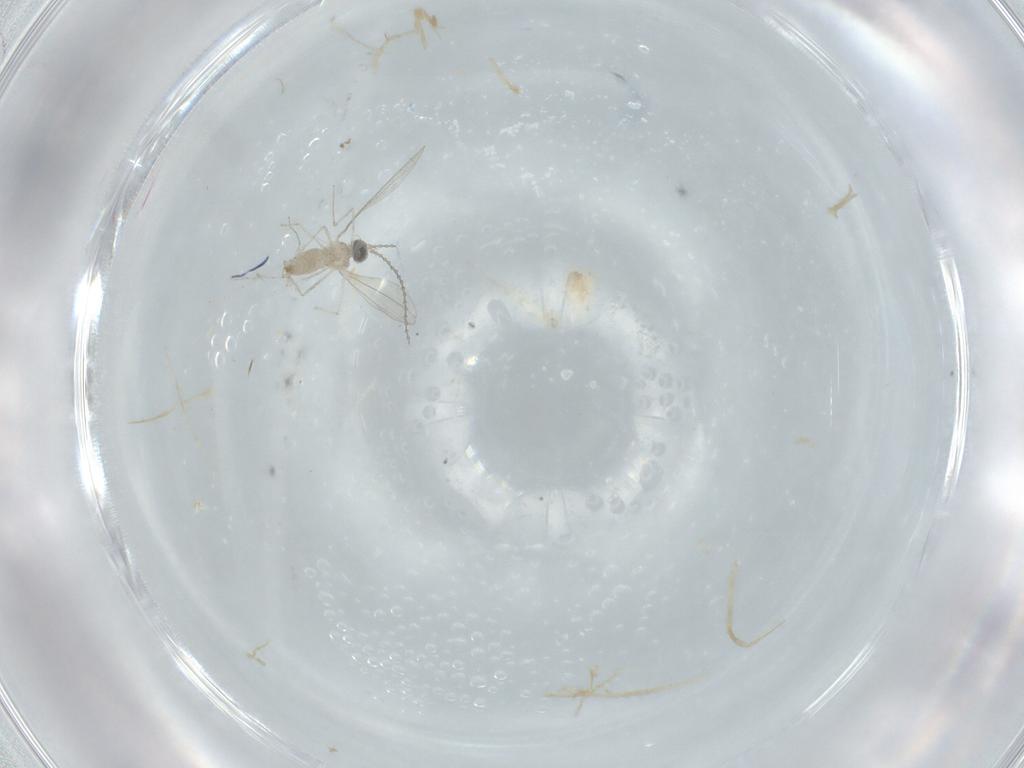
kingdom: Animalia
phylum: Arthropoda
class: Insecta
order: Diptera
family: Cecidomyiidae
